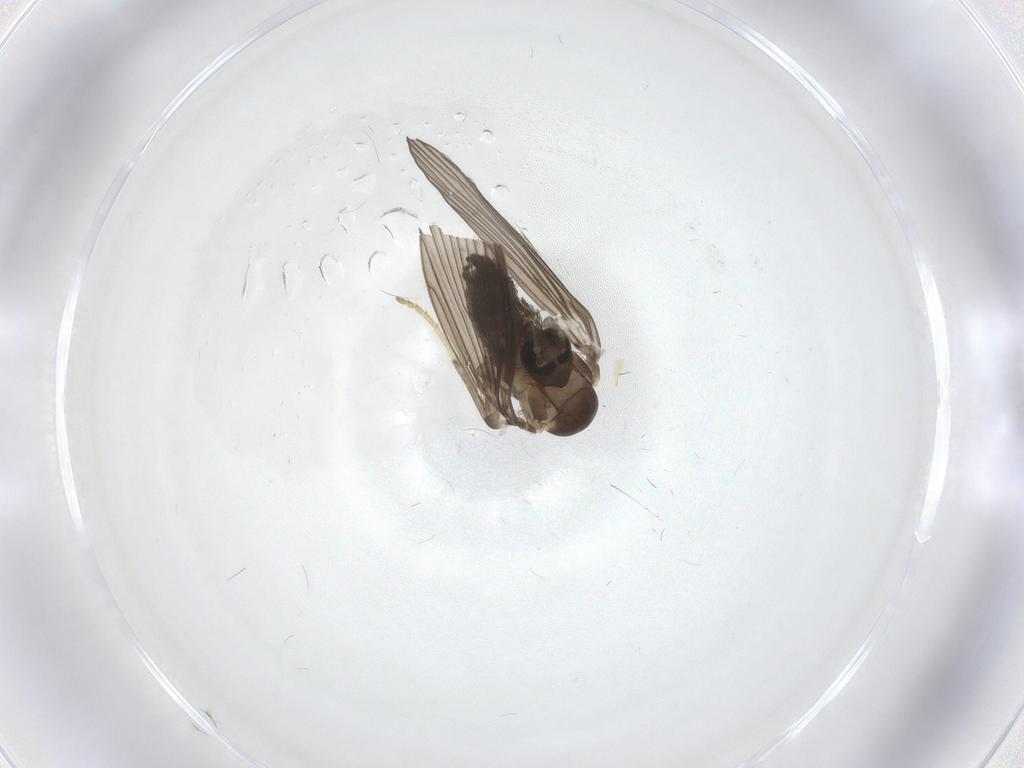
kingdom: Animalia
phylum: Arthropoda
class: Insecta
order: Diptera
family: Psychodidae
